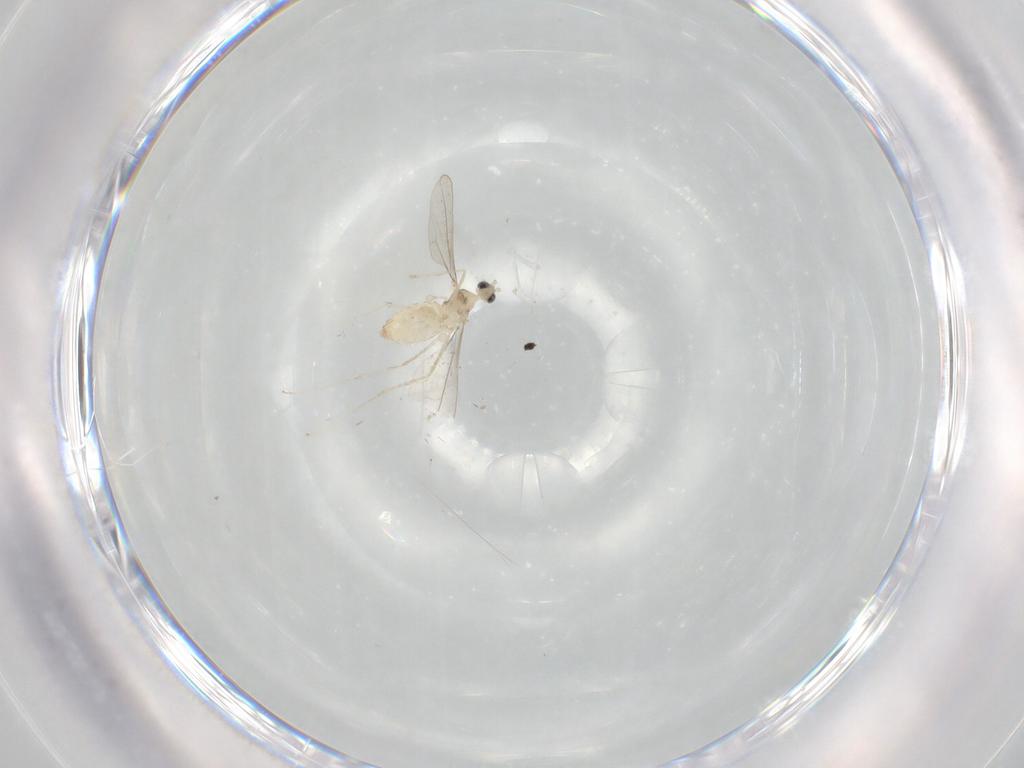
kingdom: Animalia
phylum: Arthropoda
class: Insecta
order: Diptera
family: Cecidomyiidae
